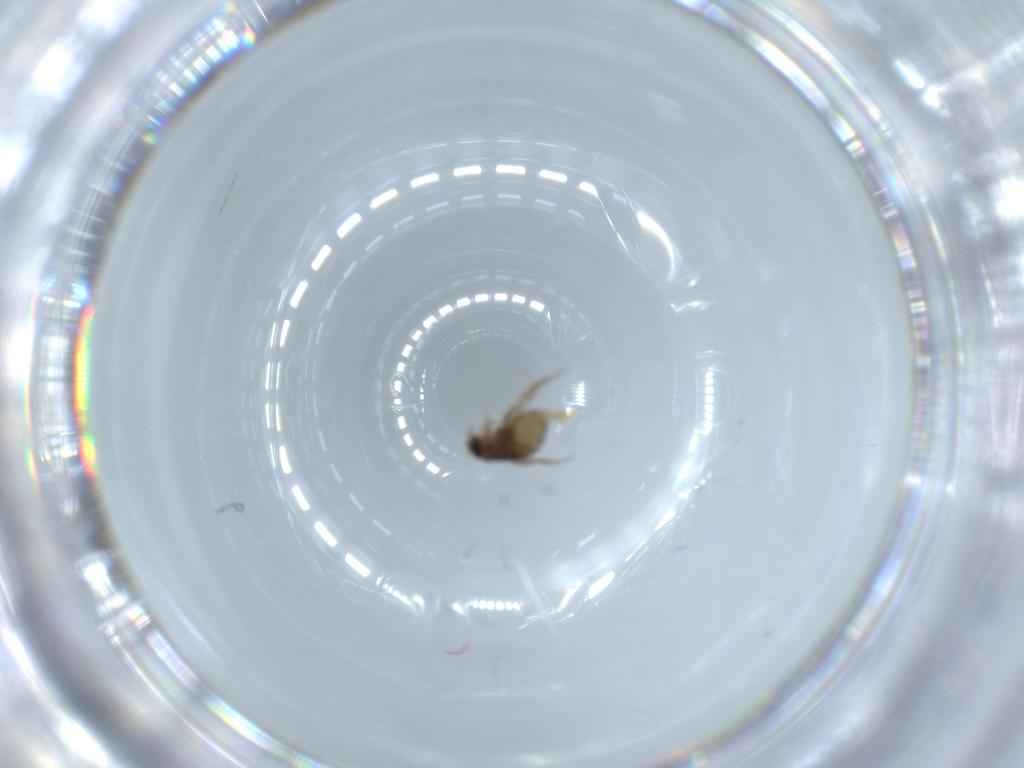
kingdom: Animalia
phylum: Arthropoda
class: Insecta
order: Diptera
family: Phoridae
